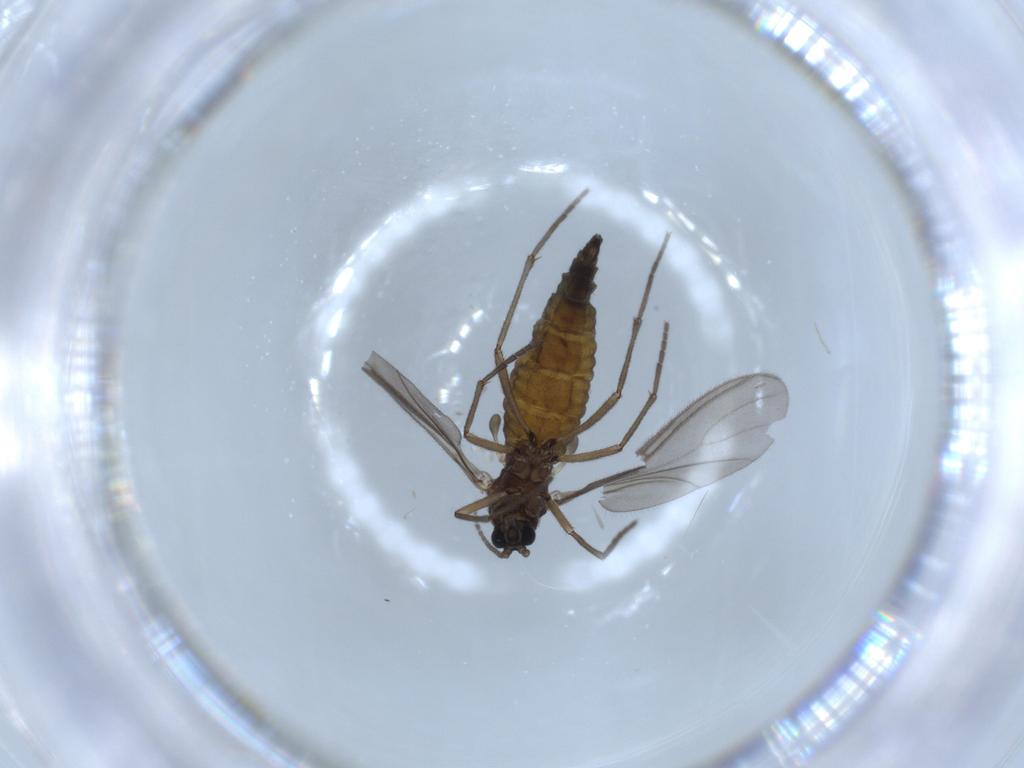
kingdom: Animalia
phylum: Arthropoda
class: Insecta
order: Diptera
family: Sciaridae
